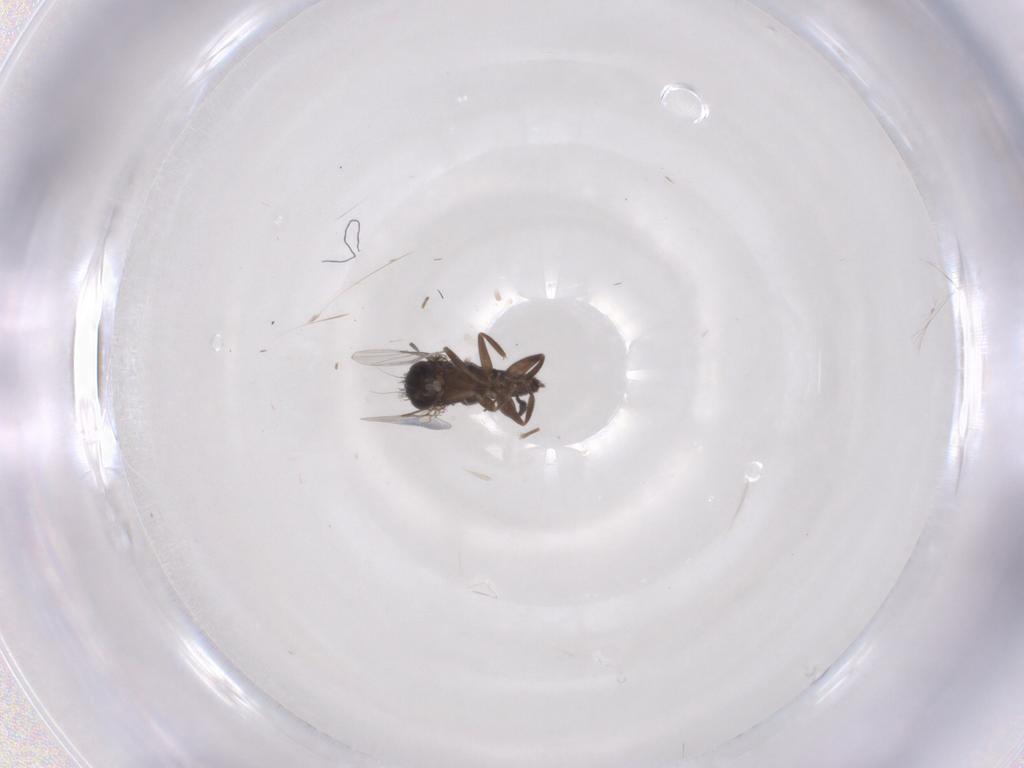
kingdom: Animalia
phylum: Arthropoda
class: Insecta
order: Diptera
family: Phoridae
